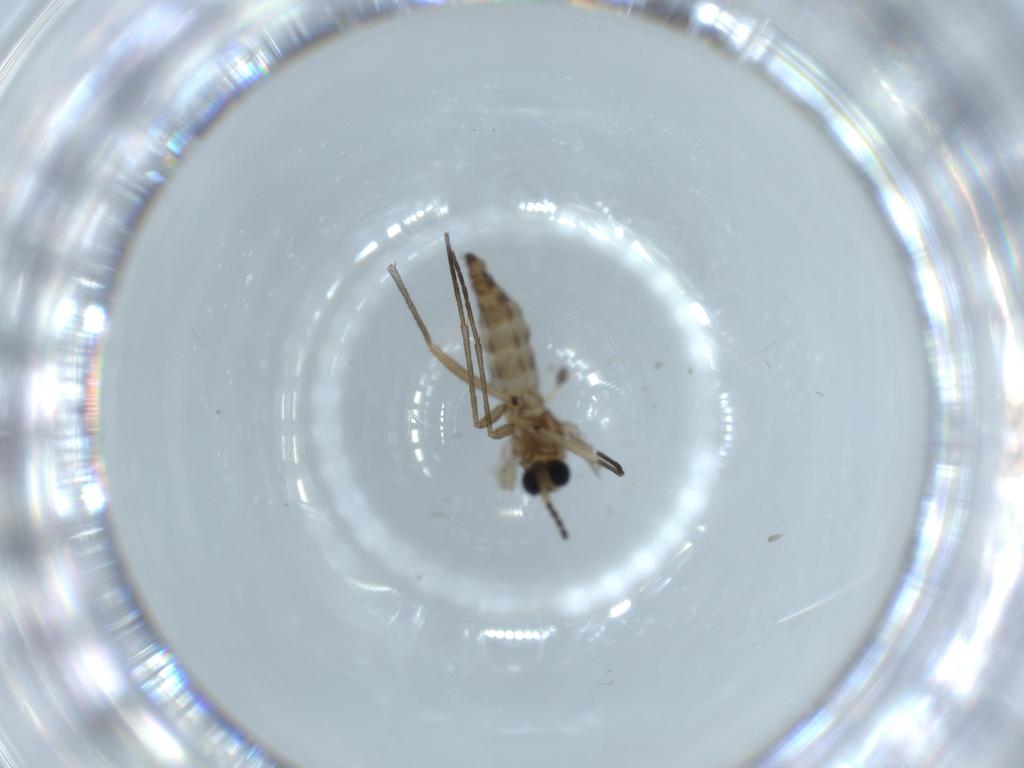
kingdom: Animalia
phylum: Arthropoda
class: Insecta
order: Diptera
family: Sciaridae
